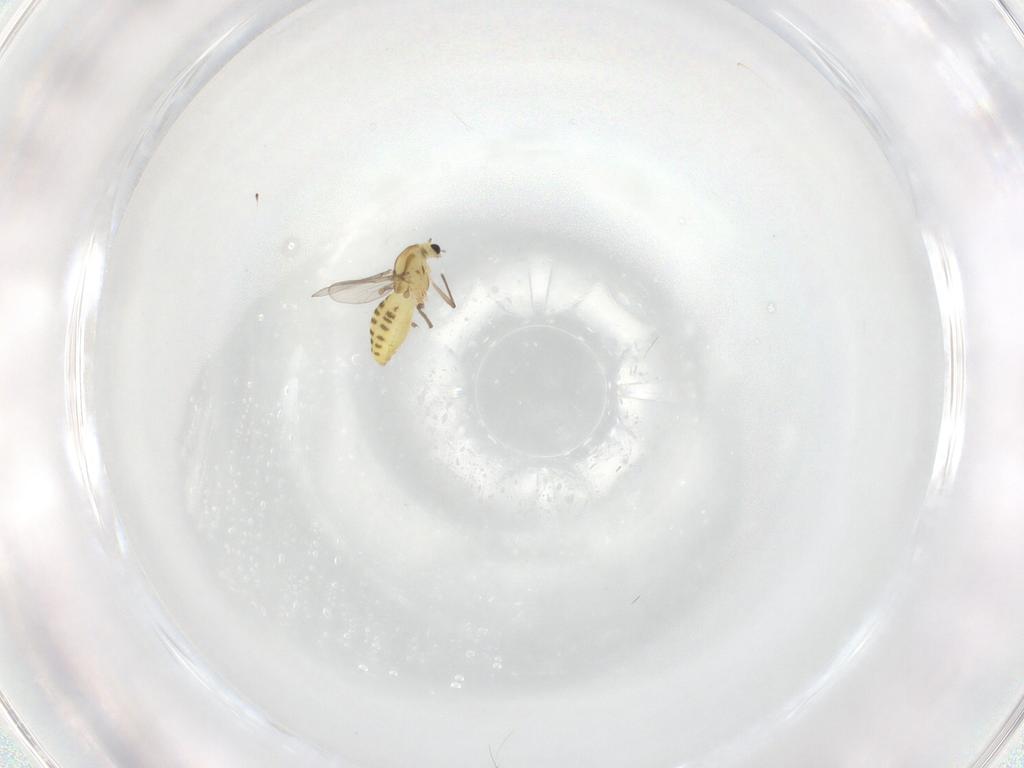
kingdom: Animalia
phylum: Arthropoda
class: Insecta
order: Diptera
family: Chironomidae
